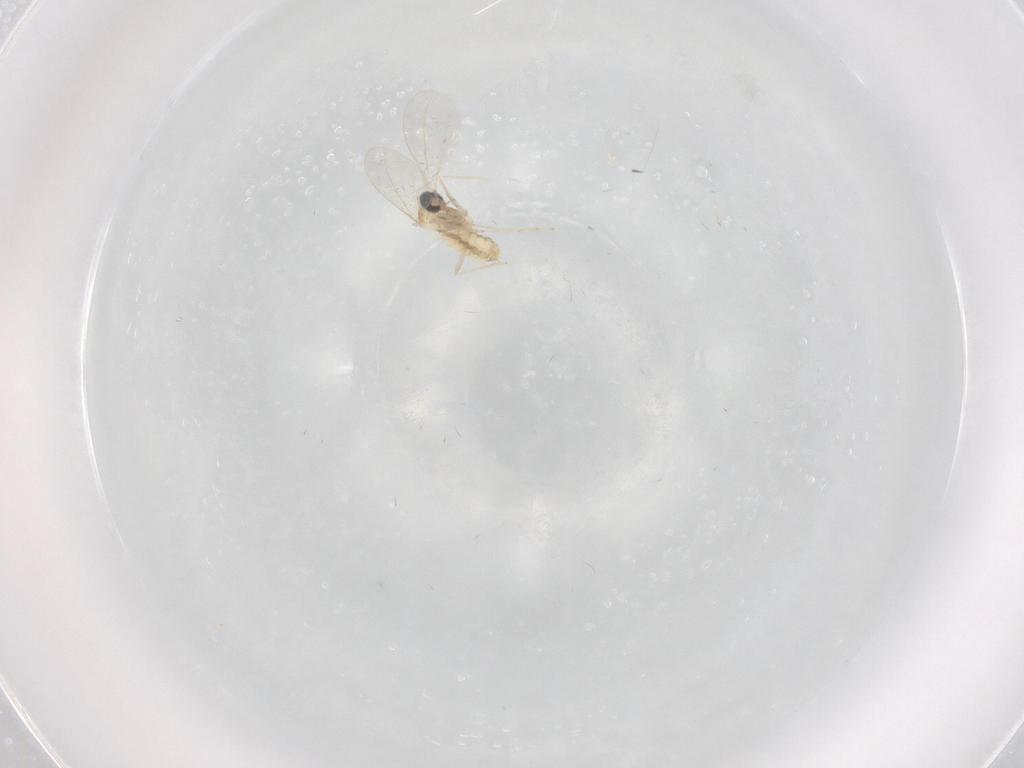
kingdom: Animalia
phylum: Arthropoda
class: Insecta
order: Diptera
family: Cecidomyiidae
